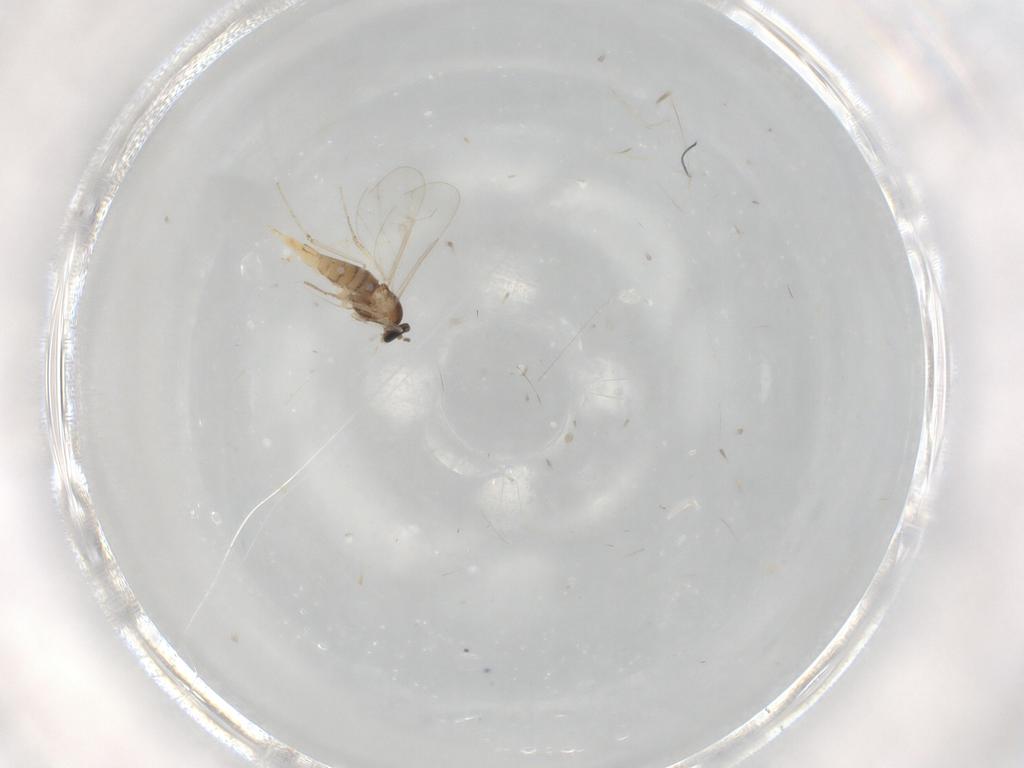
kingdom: Animalia
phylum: Arthropoda
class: Insecta
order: Diptera
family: Cecidomyiidae
